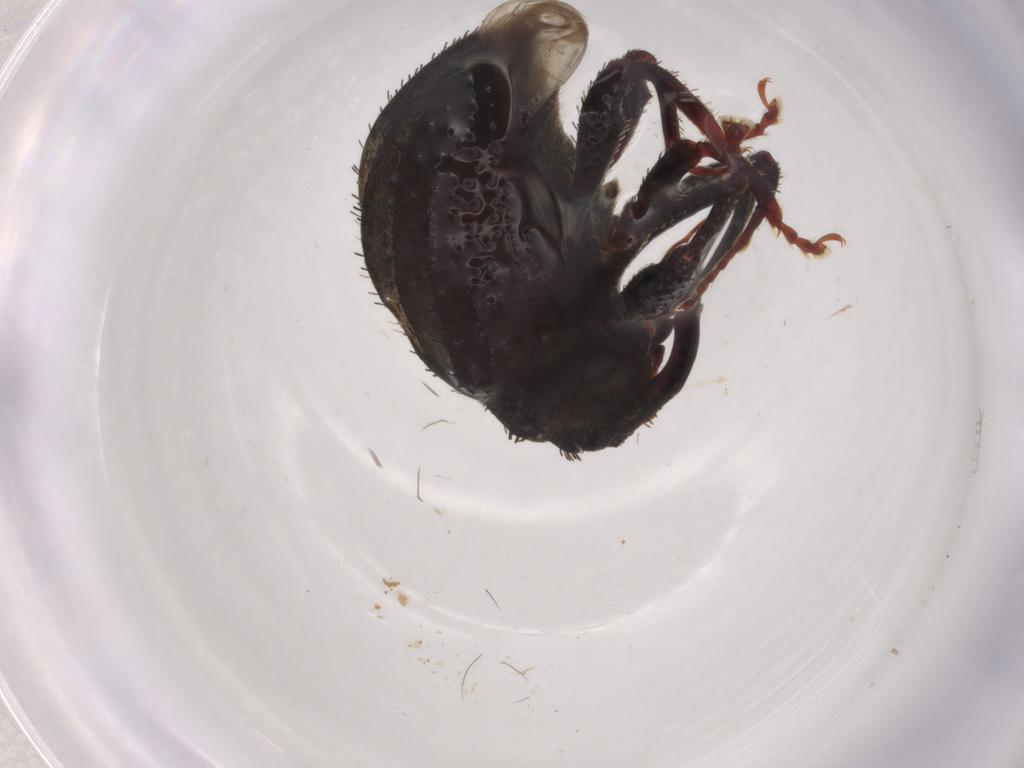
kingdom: Animalia
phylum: Arthropoda
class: Insecta
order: Coleoptera
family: Curculionidae
